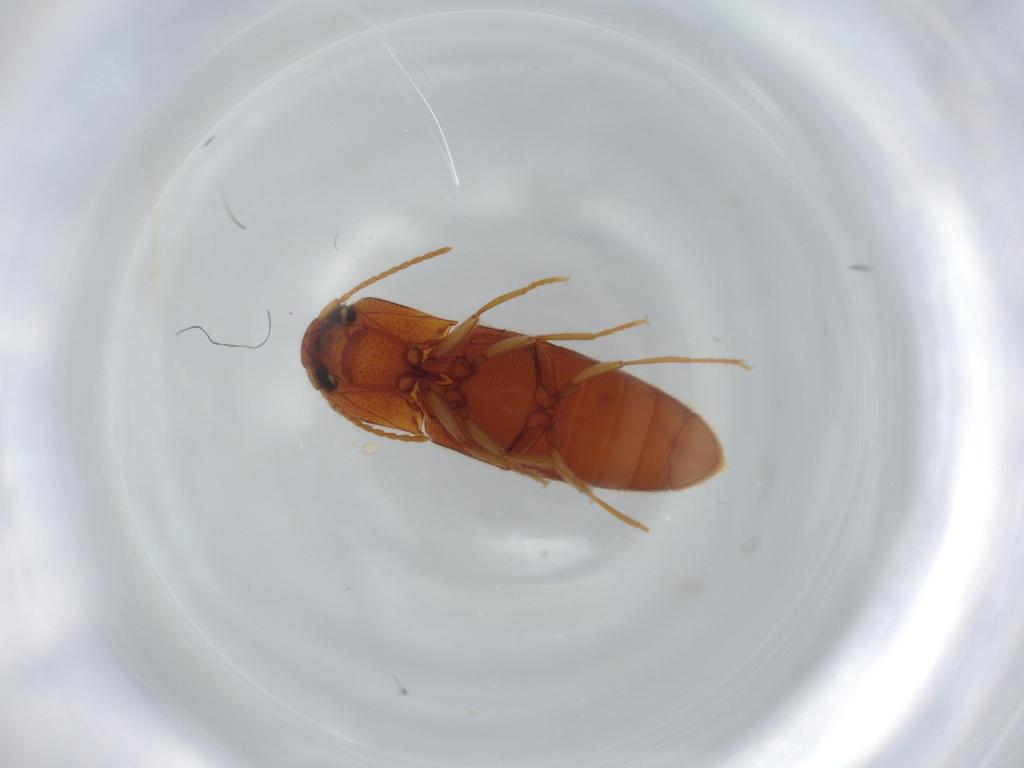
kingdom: Animalia
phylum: Arthropoda
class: Insecta
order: Coleoptera
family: Elateridae
